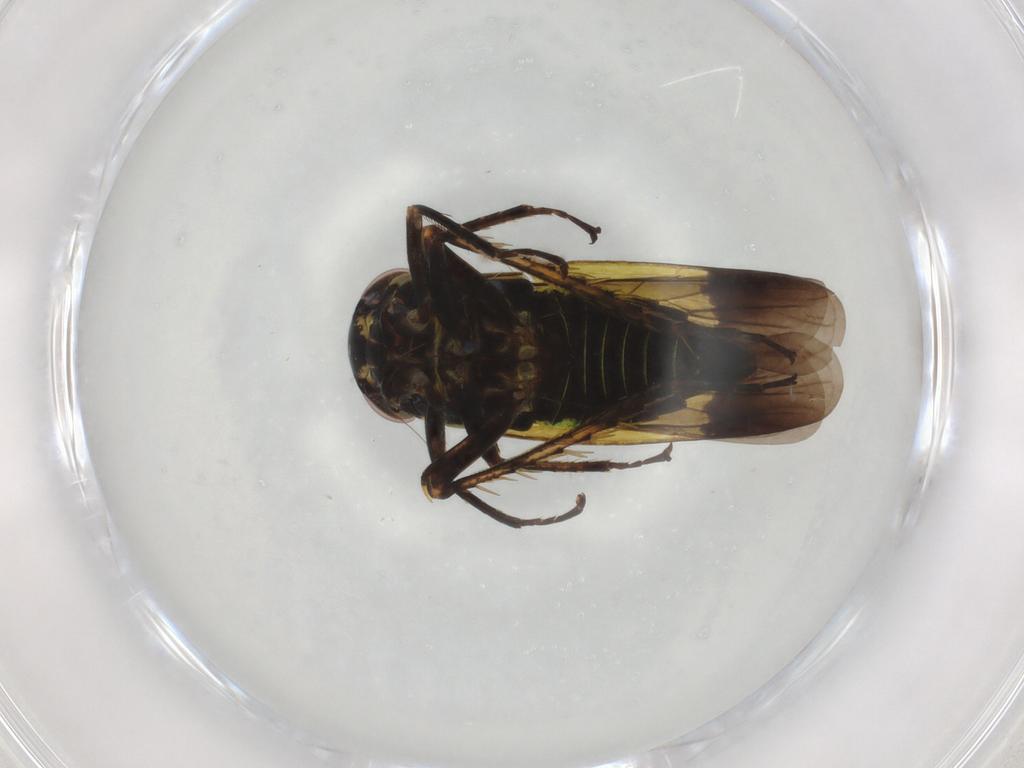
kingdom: Animalia
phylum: Arthropoda
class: Insecta
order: Hemiptera
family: Cicadellidae
